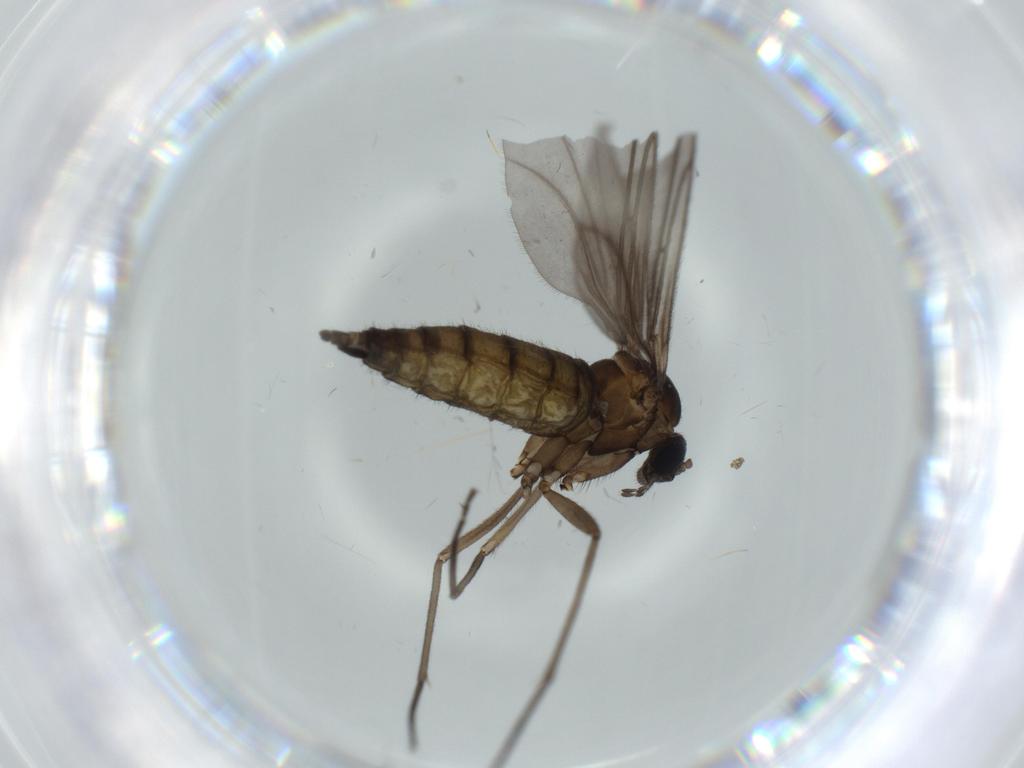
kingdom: Animalia
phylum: Arthropoda
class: Insecta
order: Diptera
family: Sciaridae
